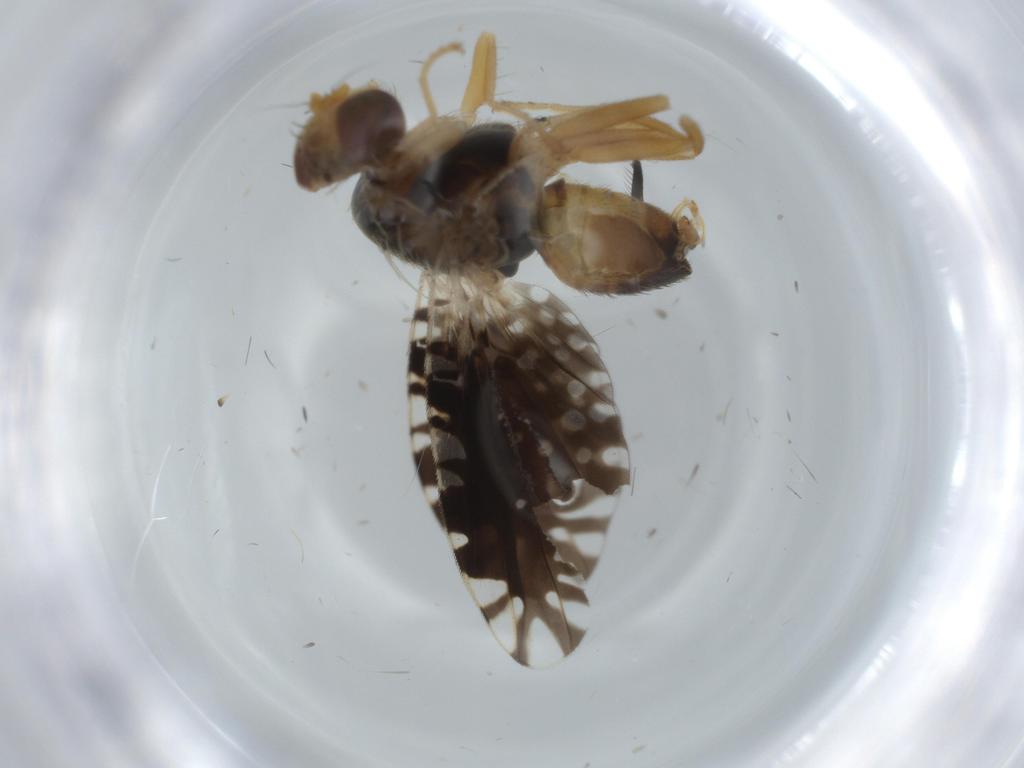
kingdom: Animalia
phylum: Arthropoda
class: Insecta
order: Diptera
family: Tephritidae
